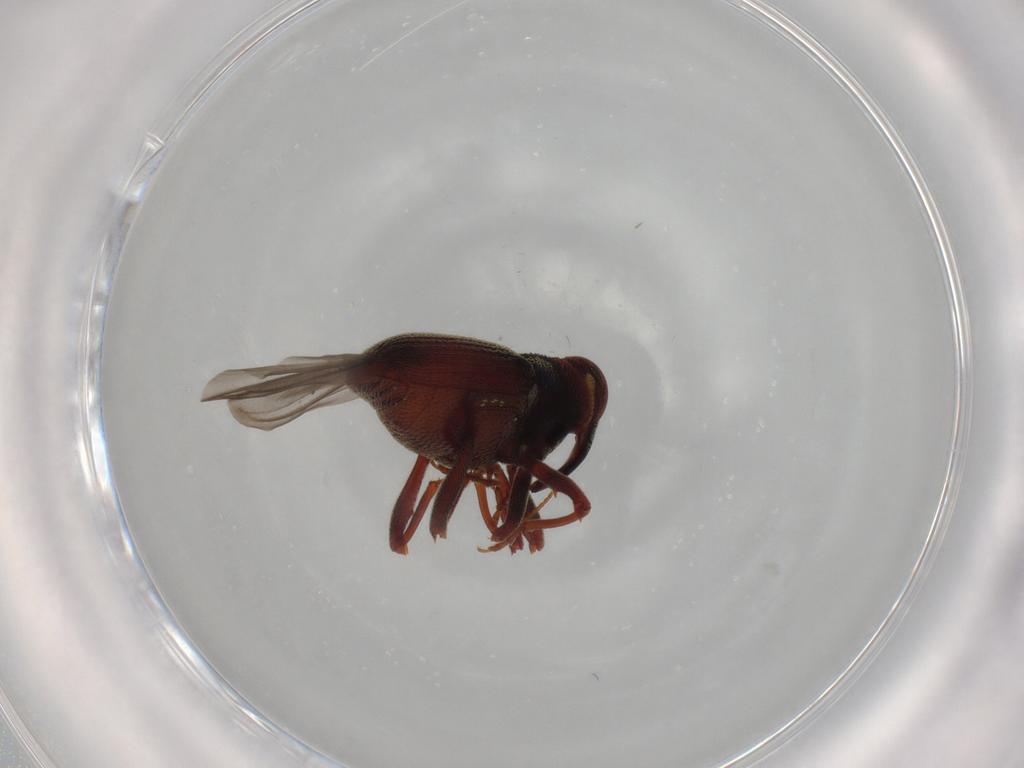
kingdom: Animalia
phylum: Arthropoda
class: Insecta
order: Coleoptera
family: Curculionidae
